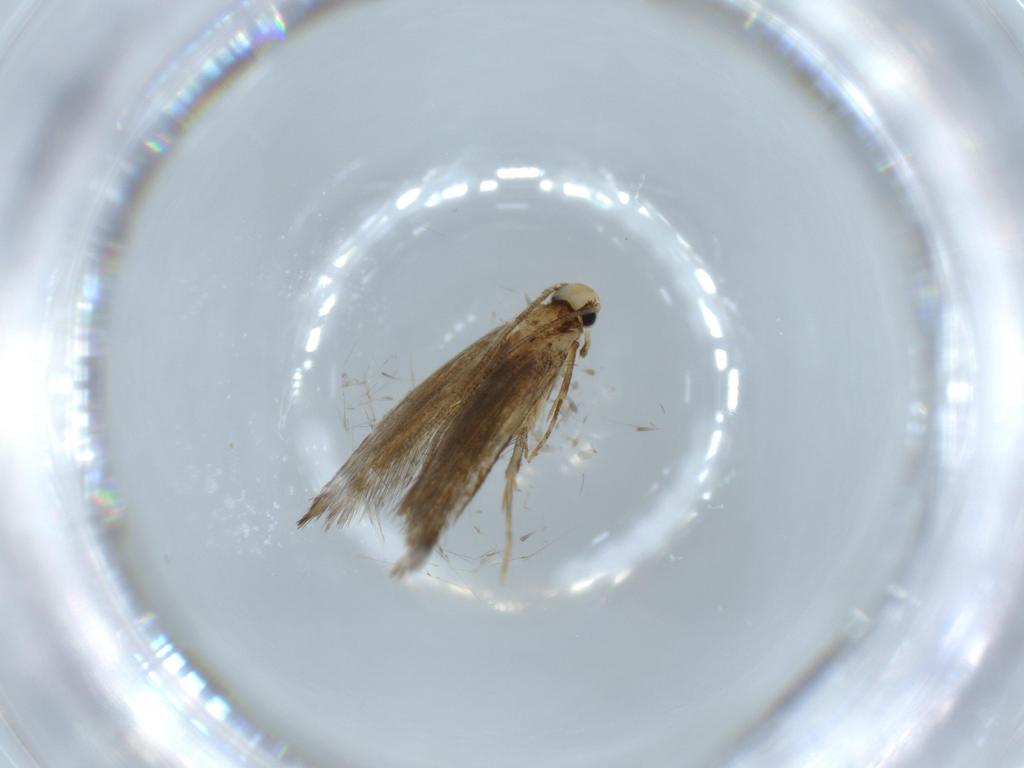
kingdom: Animalia
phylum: Arthropoda
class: Insecta
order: Lepidoptera
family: Tineidae
